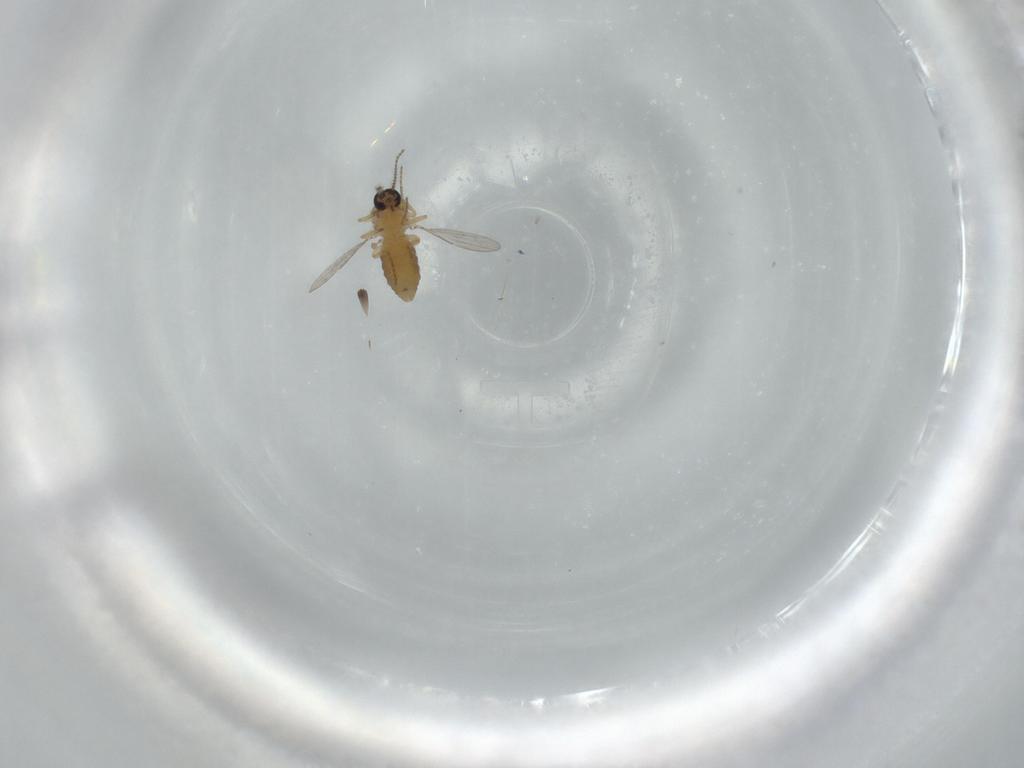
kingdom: Animalia
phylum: Arthropoda
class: Insecta
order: Diptera
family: Ceratopogonidae
